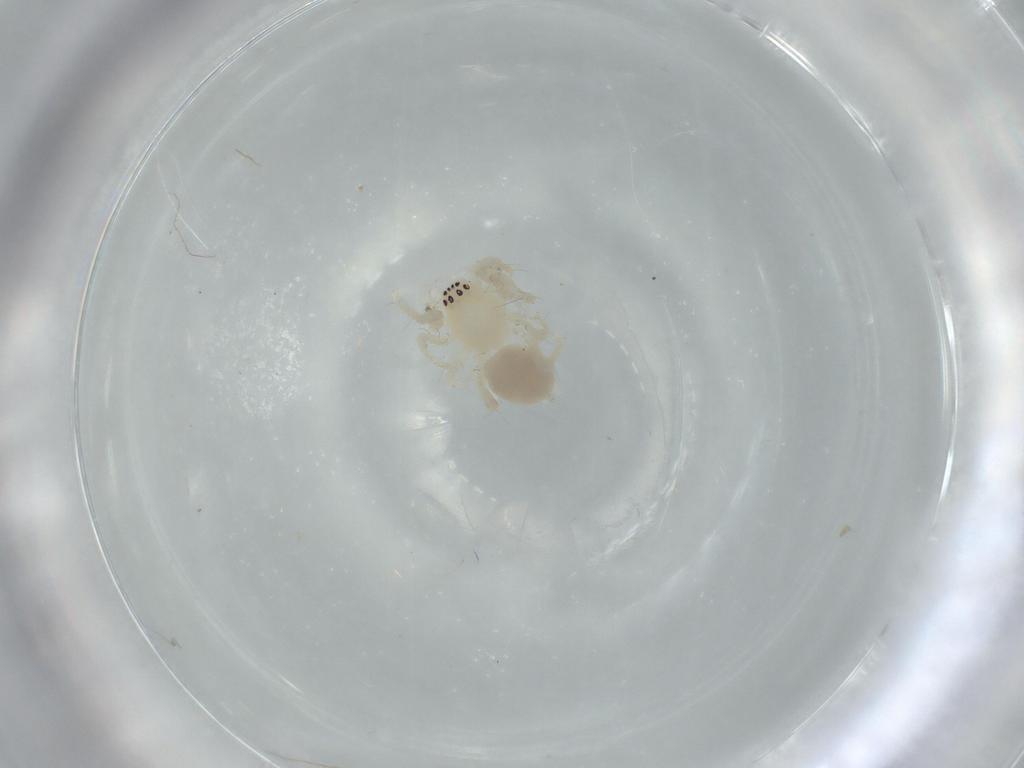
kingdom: Animalia
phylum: Arthropoda
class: Arachnida
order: Araneae
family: Anyphaenidae
